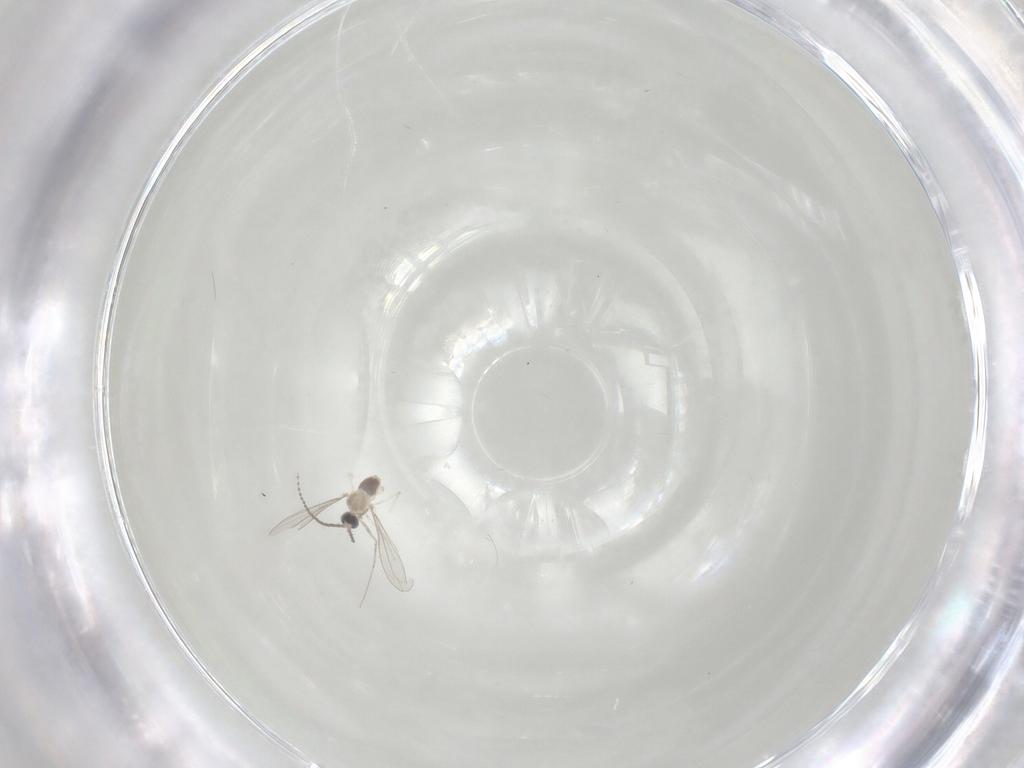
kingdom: Animalia
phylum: Arthropoda
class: Insecta
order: Diptera
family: Cecidomyiidae
